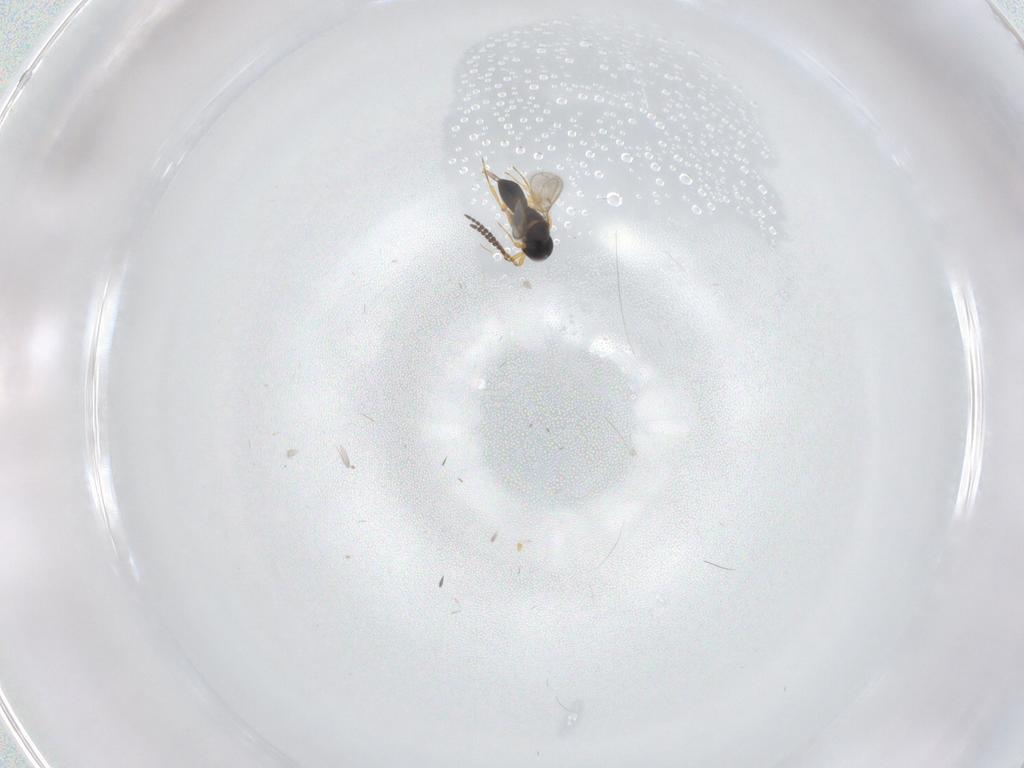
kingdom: Animalia
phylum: Arthropoda
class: Insecta
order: Hymenoptera
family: Scelionidae
